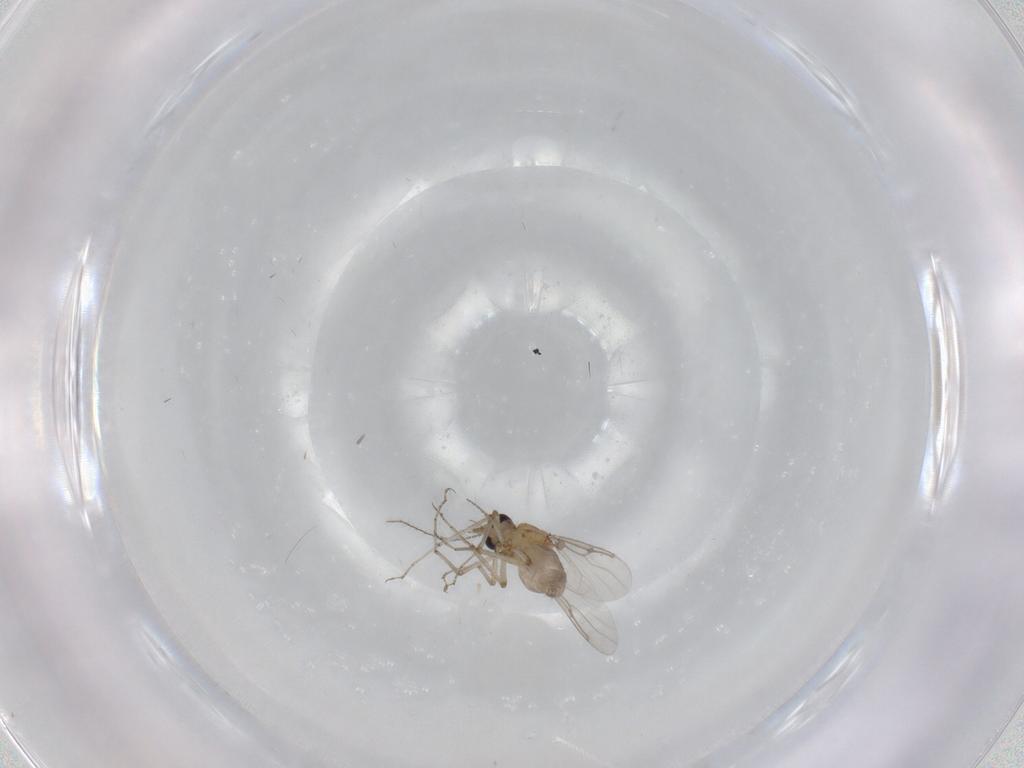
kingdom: Animalia
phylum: Arthropoda
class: Insecta
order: Diptera
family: Dolichopodidae
